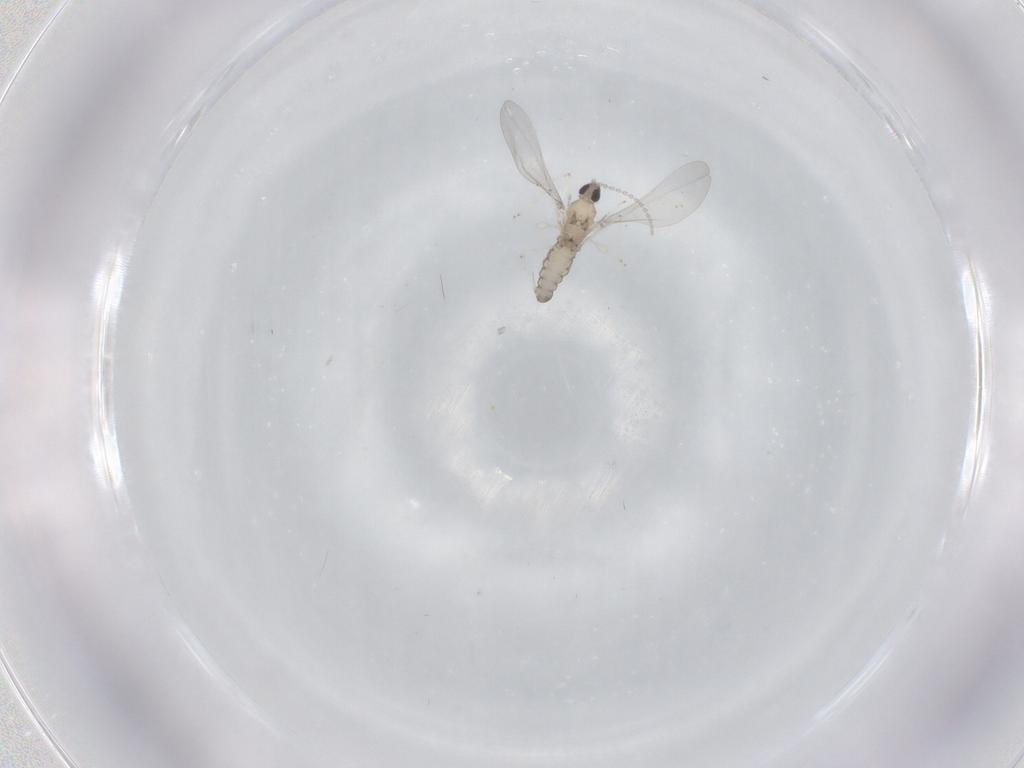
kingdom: Animalia
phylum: Arthropoda
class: Insecta
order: Diptera
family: Cecidomyiidae
